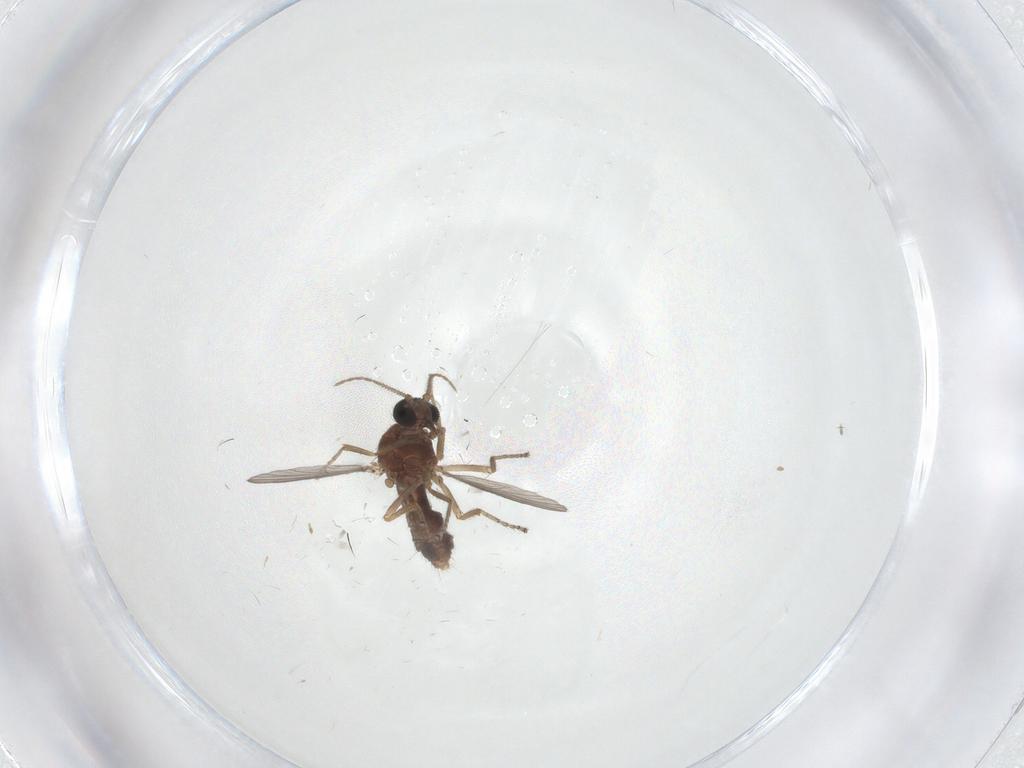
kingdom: Animalia
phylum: Arthropoda
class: Insecta
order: Diptera
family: Ceratopogonidae
